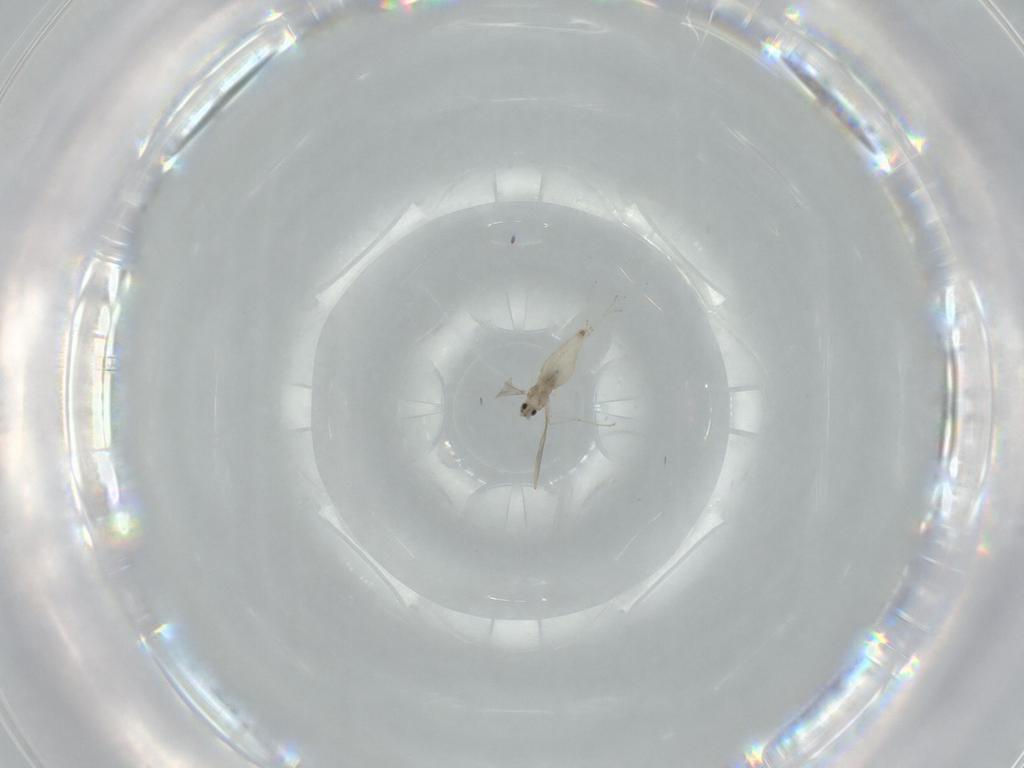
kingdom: Animalia
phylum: Arthropoda
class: Insecta
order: Diptera
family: Cecidomyiidae
